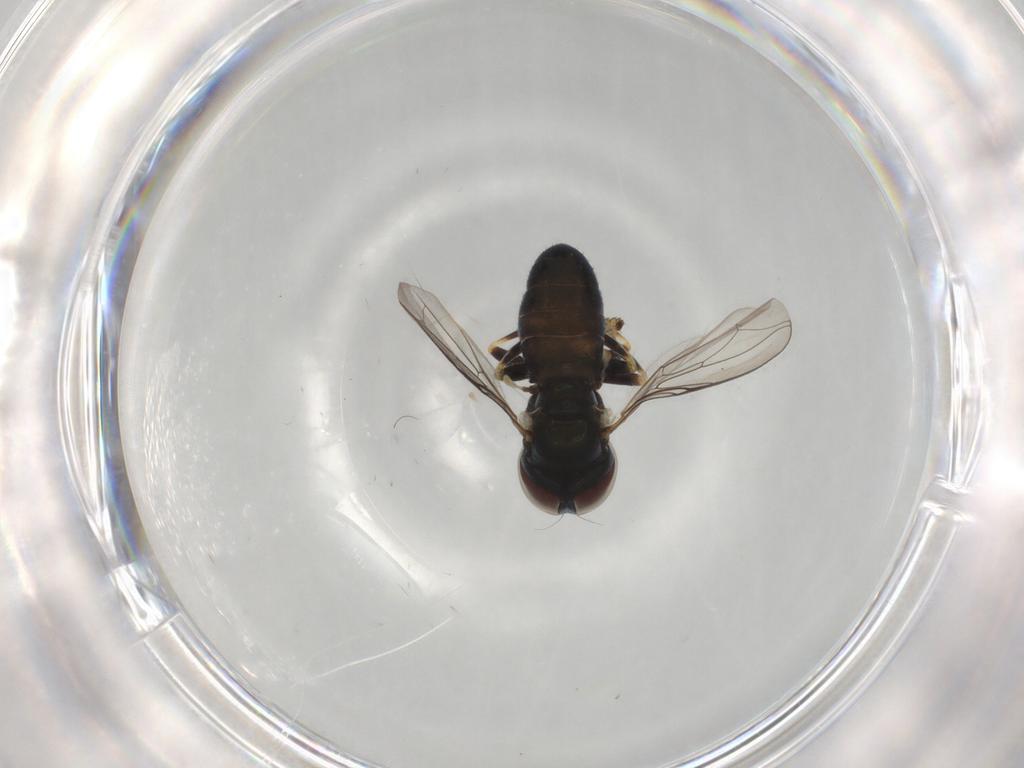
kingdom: Animalia
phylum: Arthropoda
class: Insecta
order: Diptera
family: Pipunculidae
